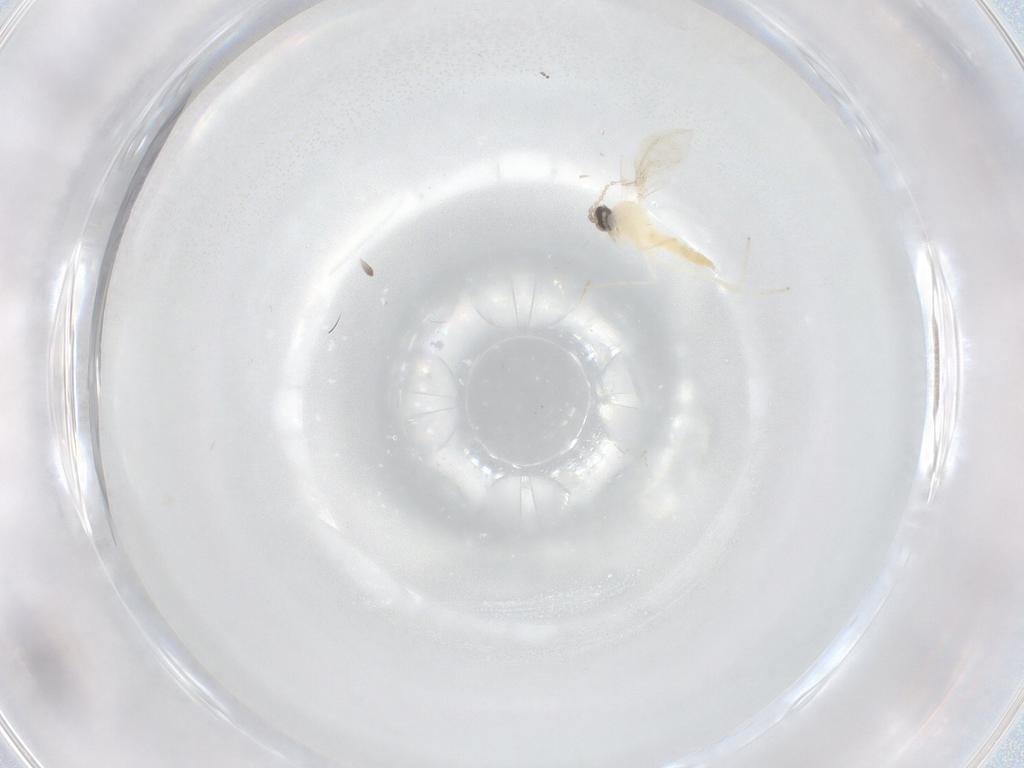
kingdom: Animalia
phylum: Arthropoda
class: Insecta
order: Diptera
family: Cecidomyiidae
